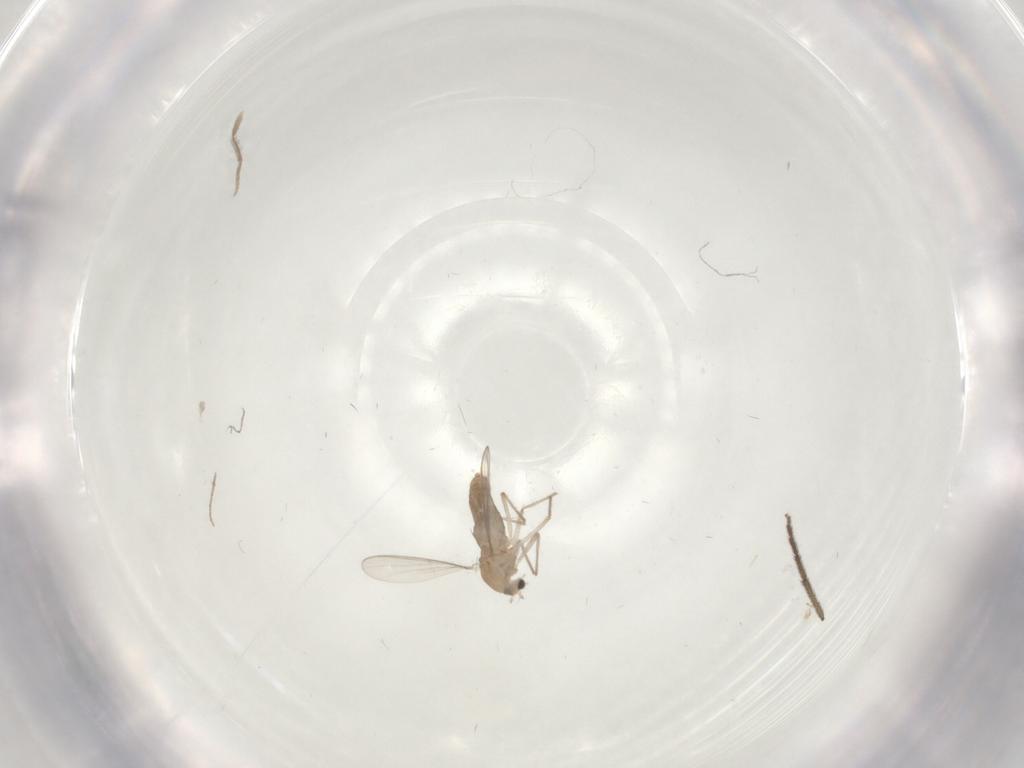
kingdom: Animalia
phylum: Arthropoda
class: Insecta
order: Diptera
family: Chironomidae
